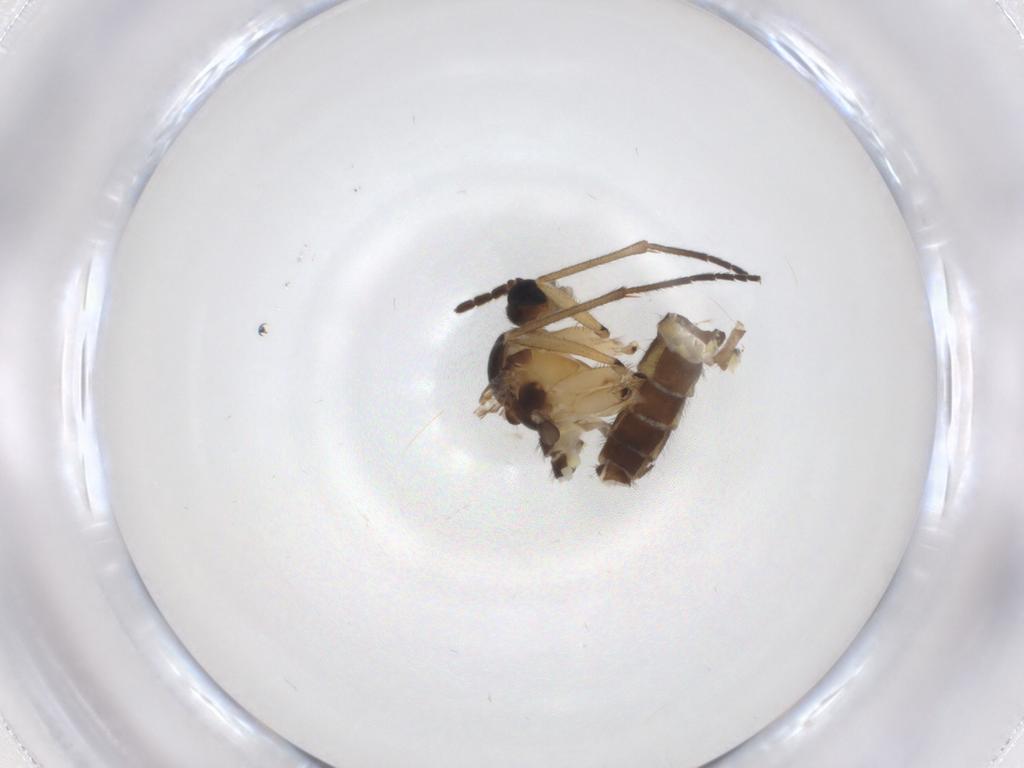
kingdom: Animalia
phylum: Arthropoda
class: Insecta
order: Diptera
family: Sciaridae
